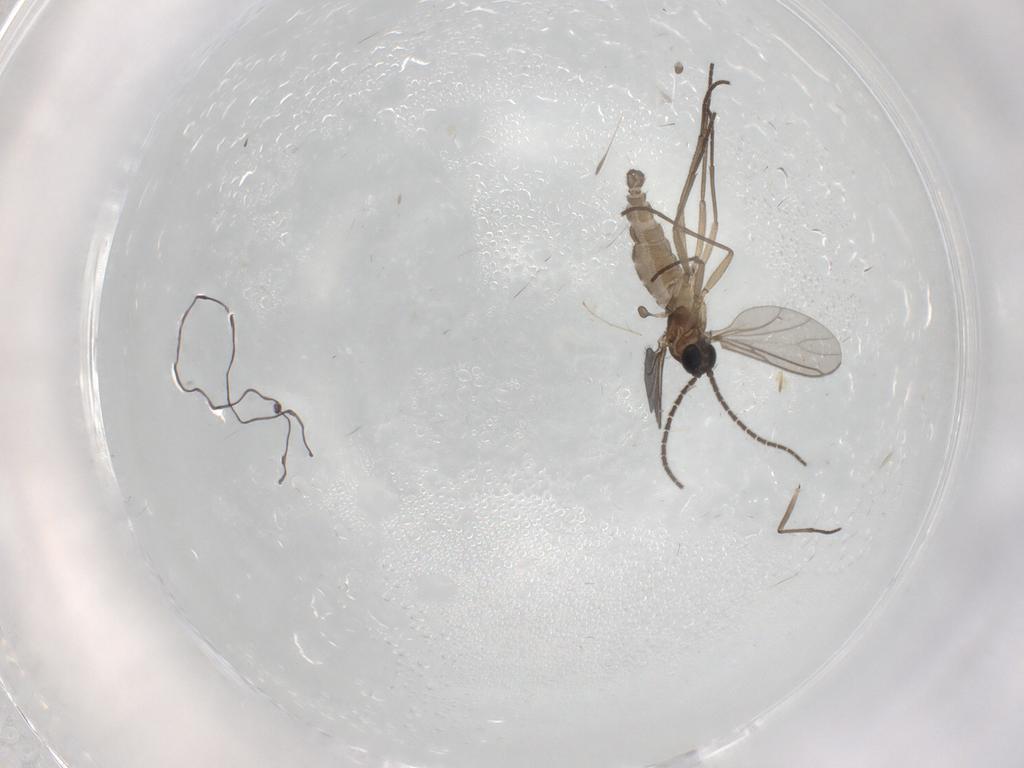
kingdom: Animalia
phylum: Arthropoda
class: Insecta
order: Diptera
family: Sciaridae
